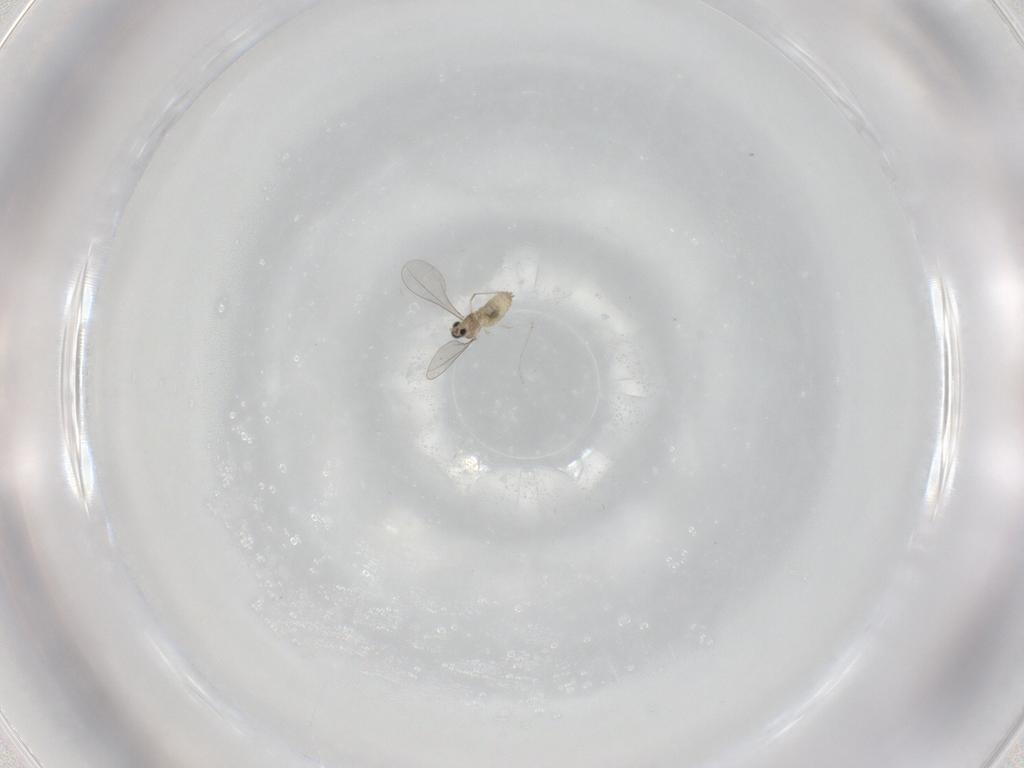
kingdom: Animalia
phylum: Arthropoda
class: Insecta
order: Diptera
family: Cecidomyiidae
